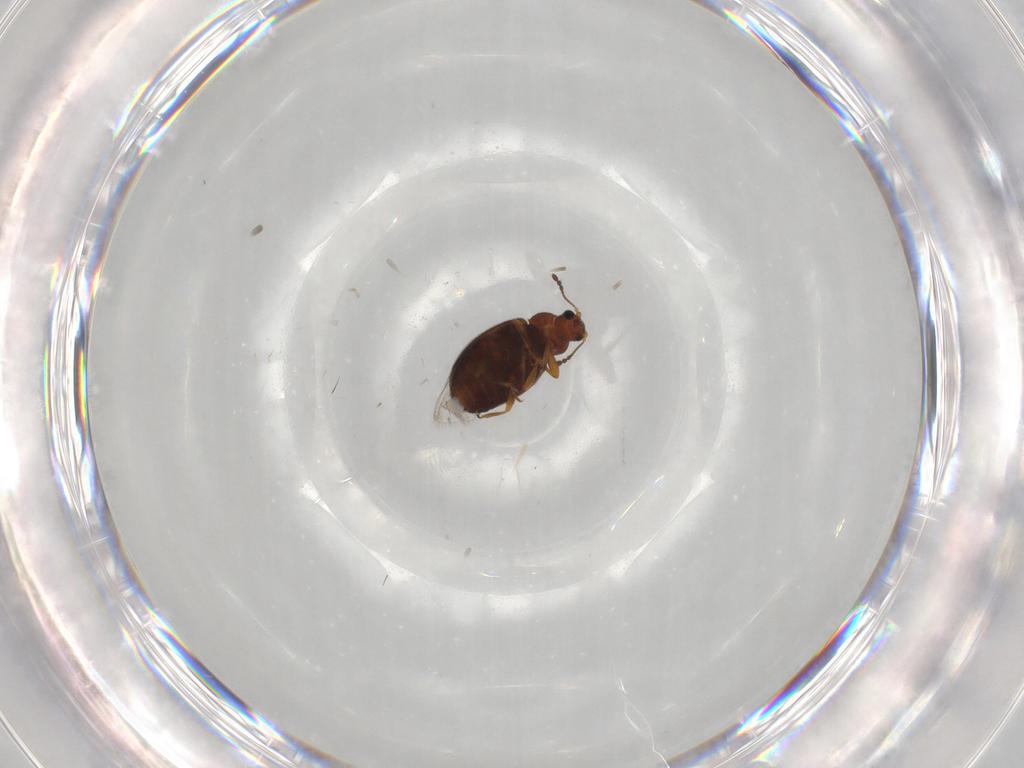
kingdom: Animalia
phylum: Arthropoda
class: Insecta
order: Coleoptera
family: Latridiidae
